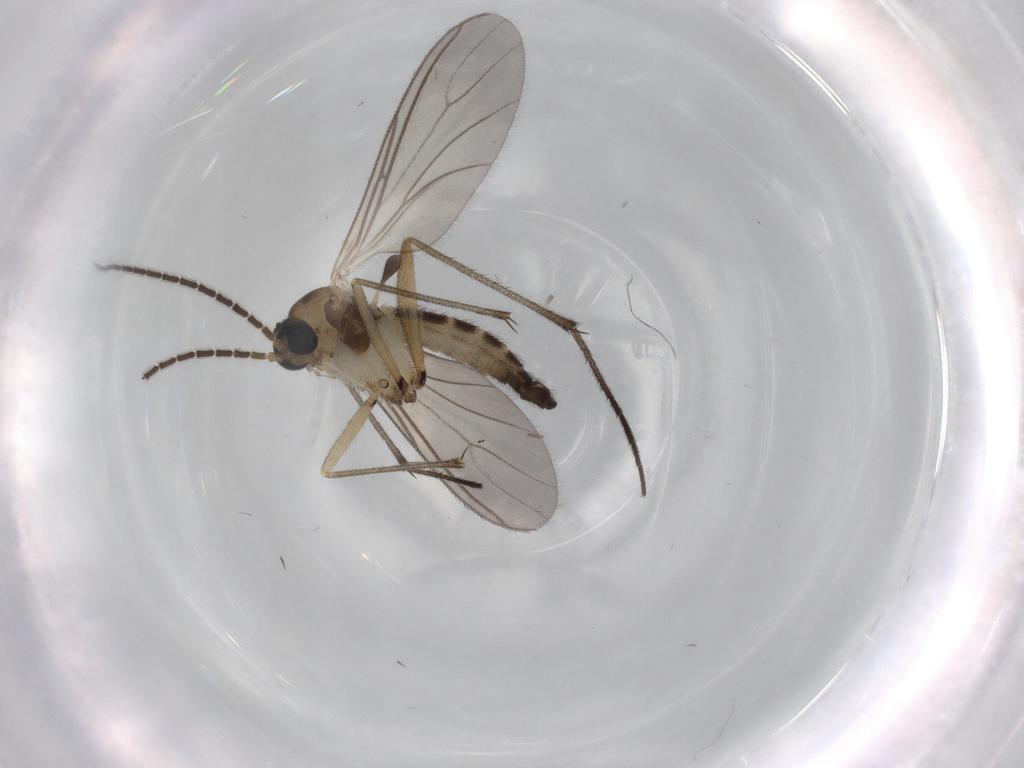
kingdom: Animalia
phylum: Arthropoda
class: Insecta
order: Diptera
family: Sciaridae
